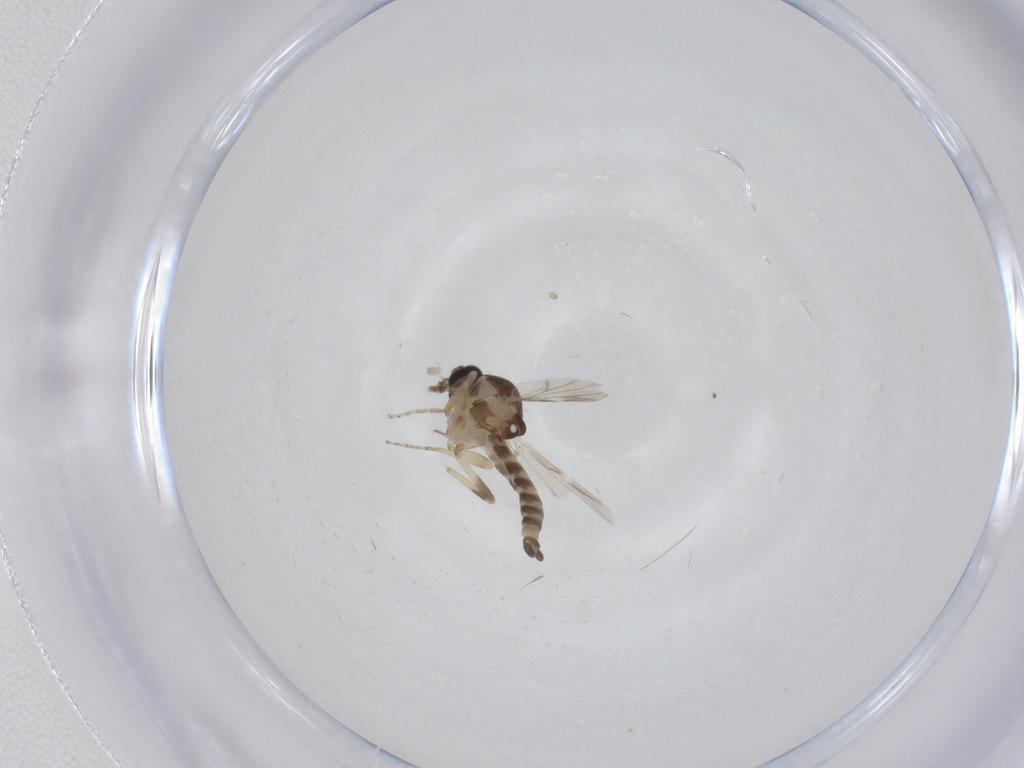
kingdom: Animalia
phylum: Arthropoda
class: Insecta
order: Diptera
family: Ceratopogonidae
